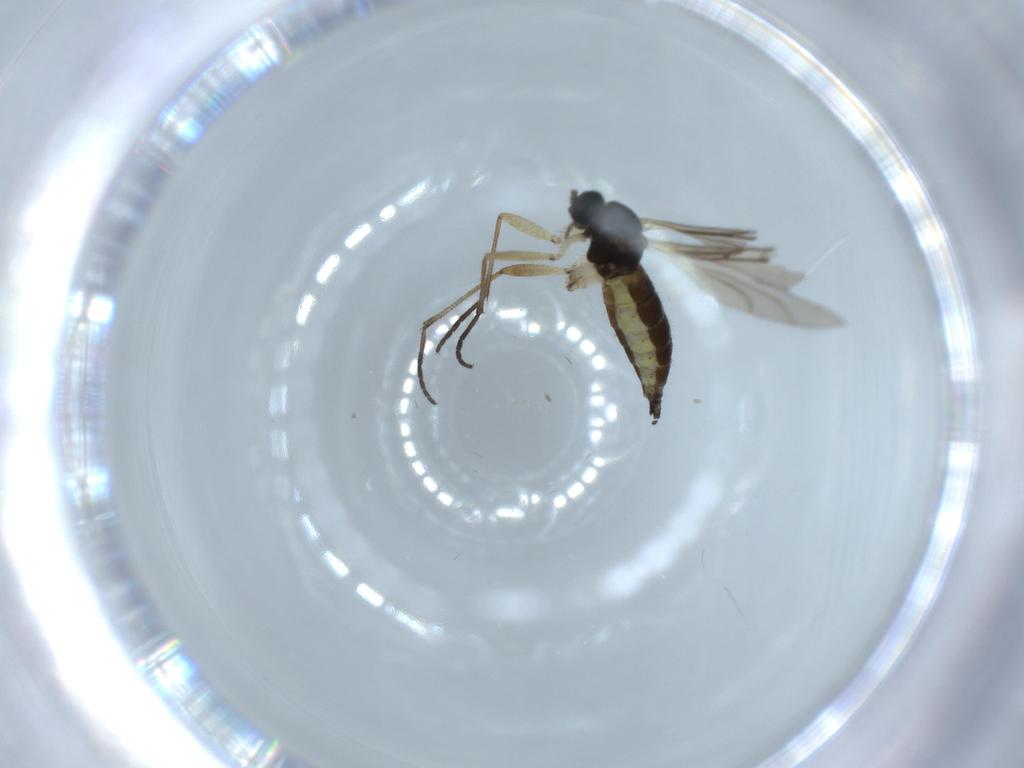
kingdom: Animalia
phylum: Arthropoda
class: Insecta
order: Diptera
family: Sciaridae
